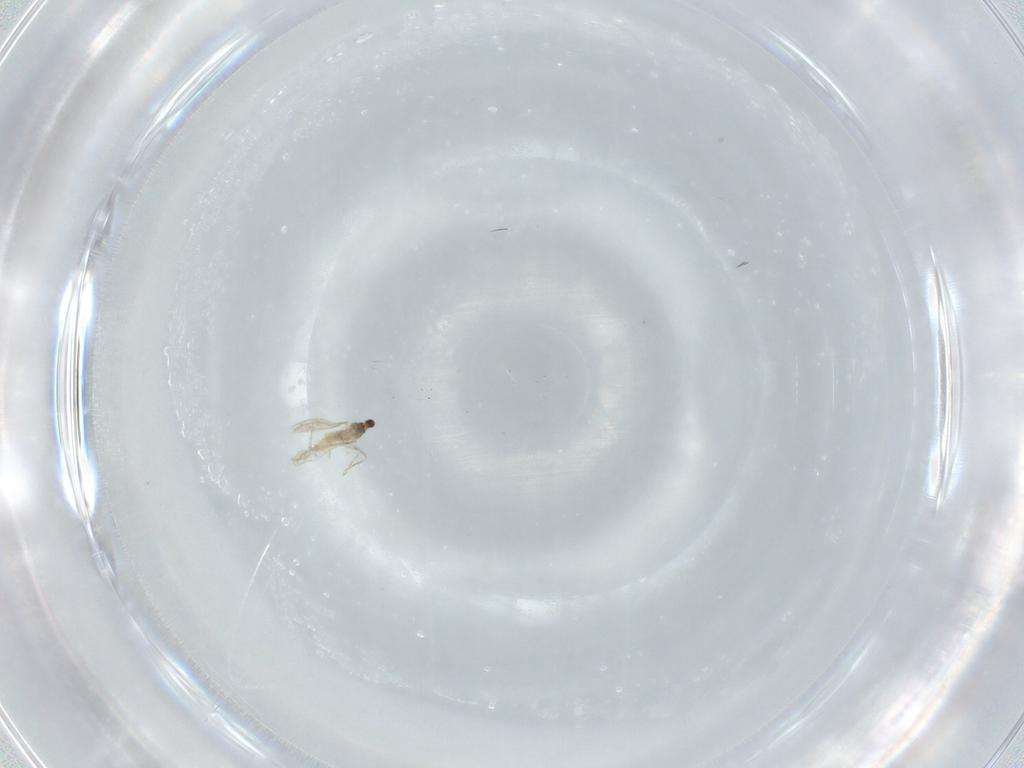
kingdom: Animalia
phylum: Arthropoda
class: Insecta
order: Diptera
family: Cecidomyiidae
